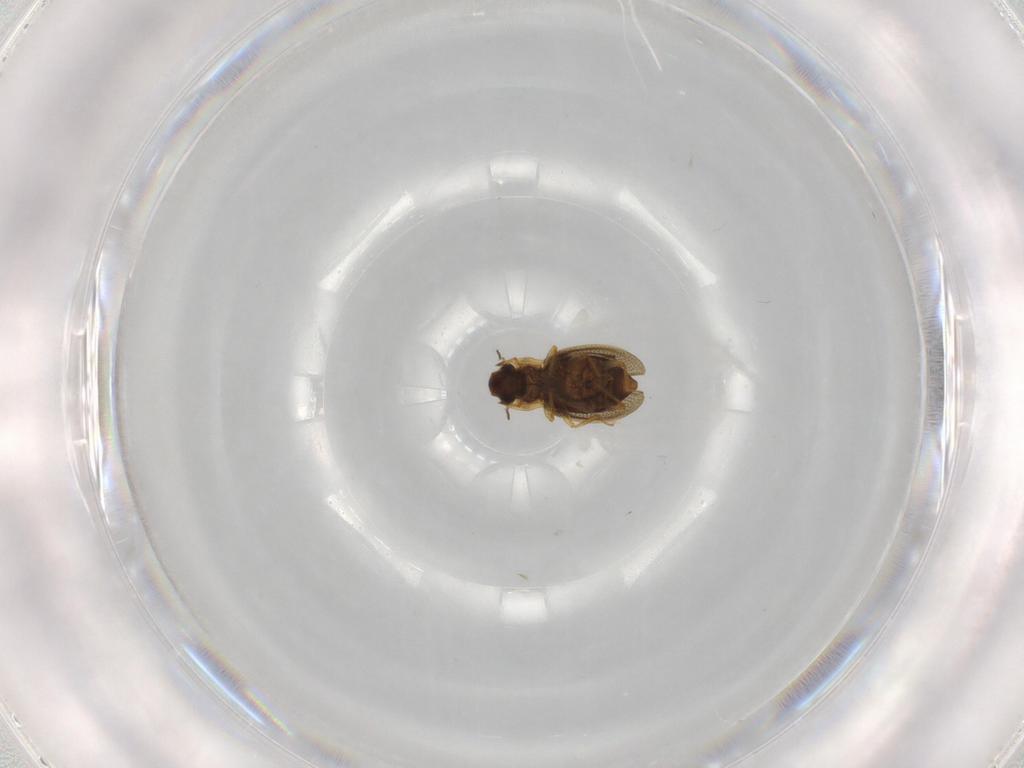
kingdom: Animalia
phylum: Arthropoda
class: Insecta
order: Coleoptera
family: Hydraenidae
